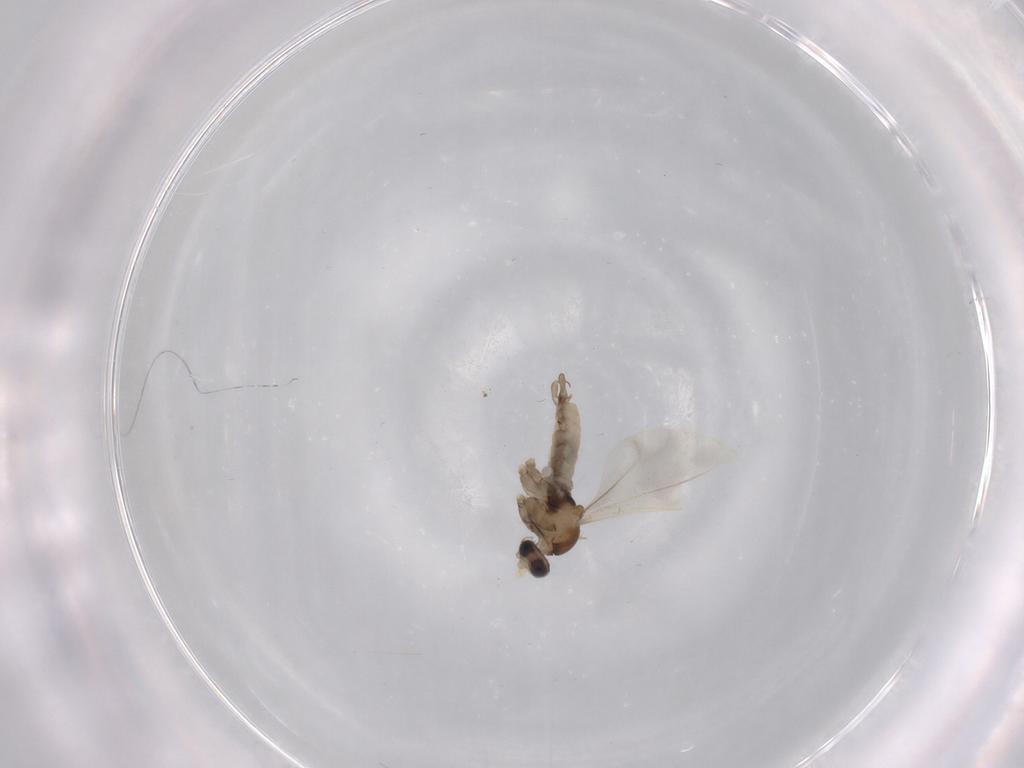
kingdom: Animalia
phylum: Arthropoda
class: Insecta
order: Diptera
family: Cecidomyiidae
